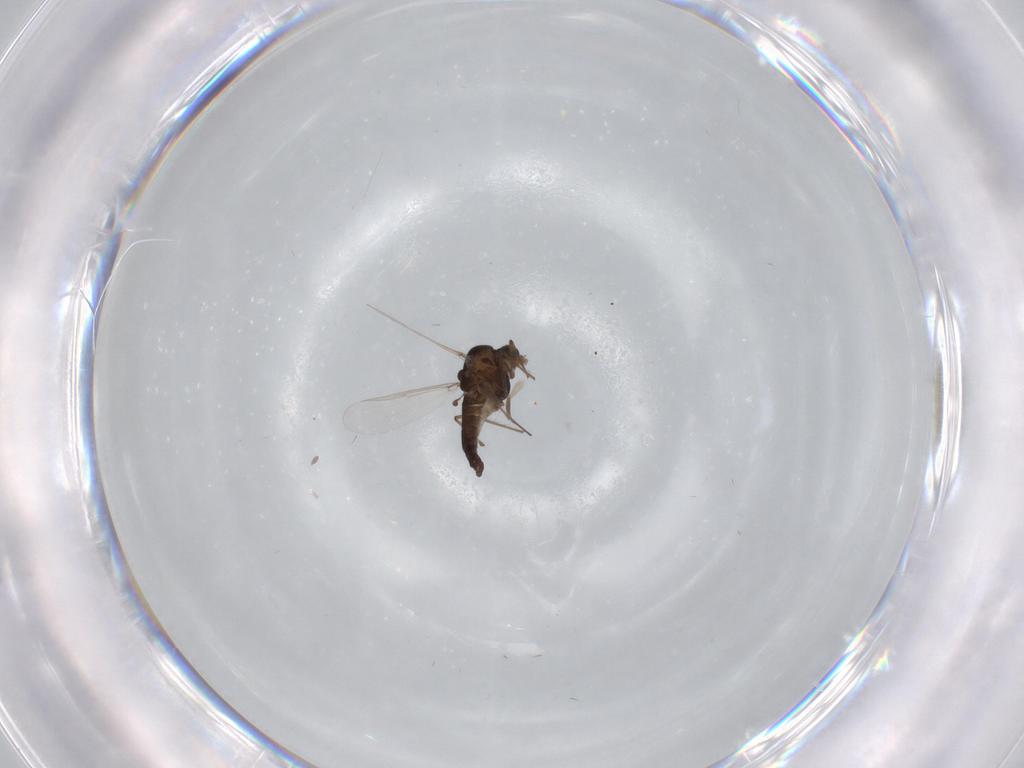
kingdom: Animalia
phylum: Arthropoda
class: Insecta
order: Diptera
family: Chironomidae
